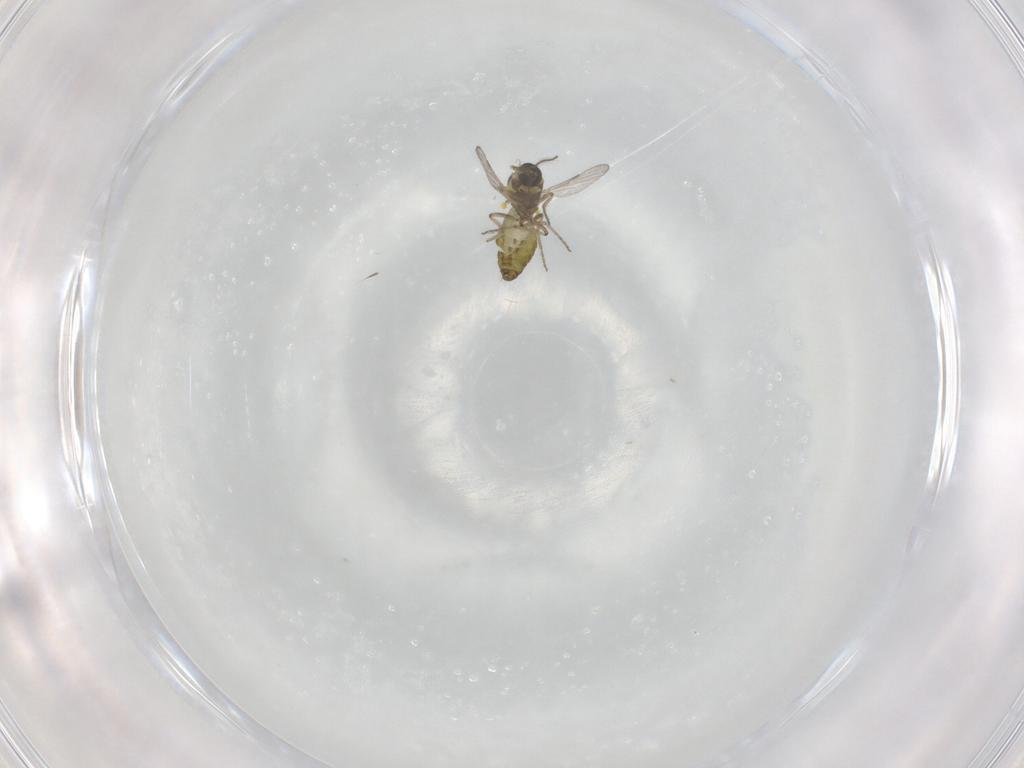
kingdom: Animalia
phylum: Arthropoda
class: Insecta
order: Diptera
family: Ceratopogonidae
